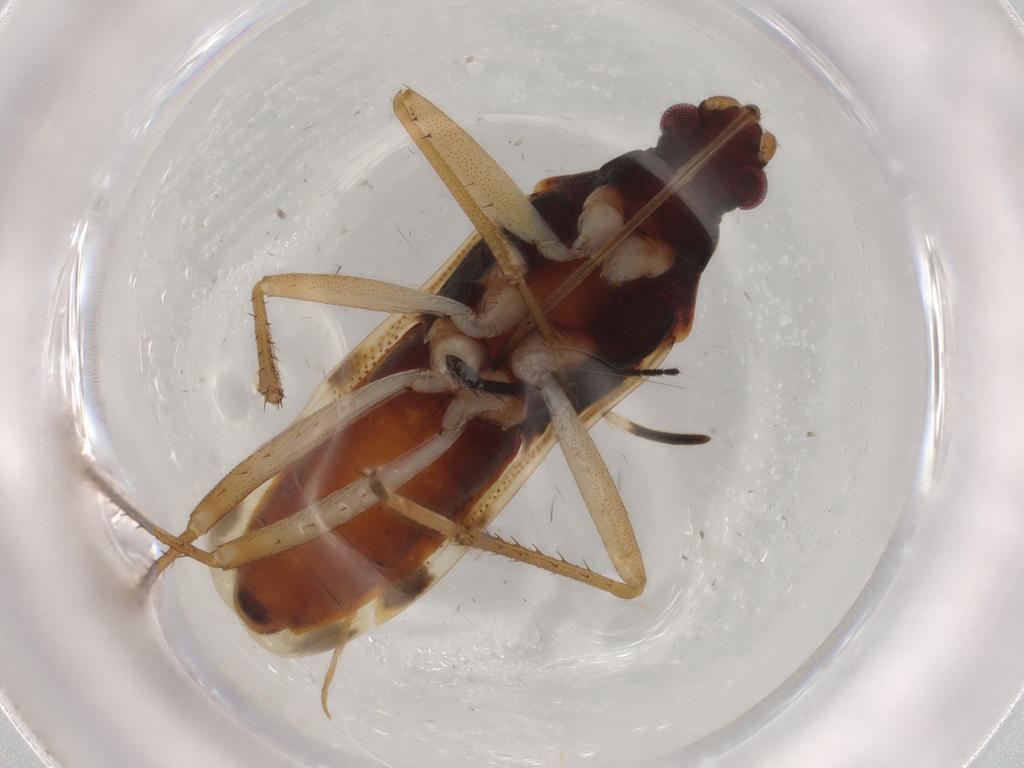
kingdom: Animalia
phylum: Arthropoda
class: Insecta
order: Hemiptera
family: Rhyparochromidae
